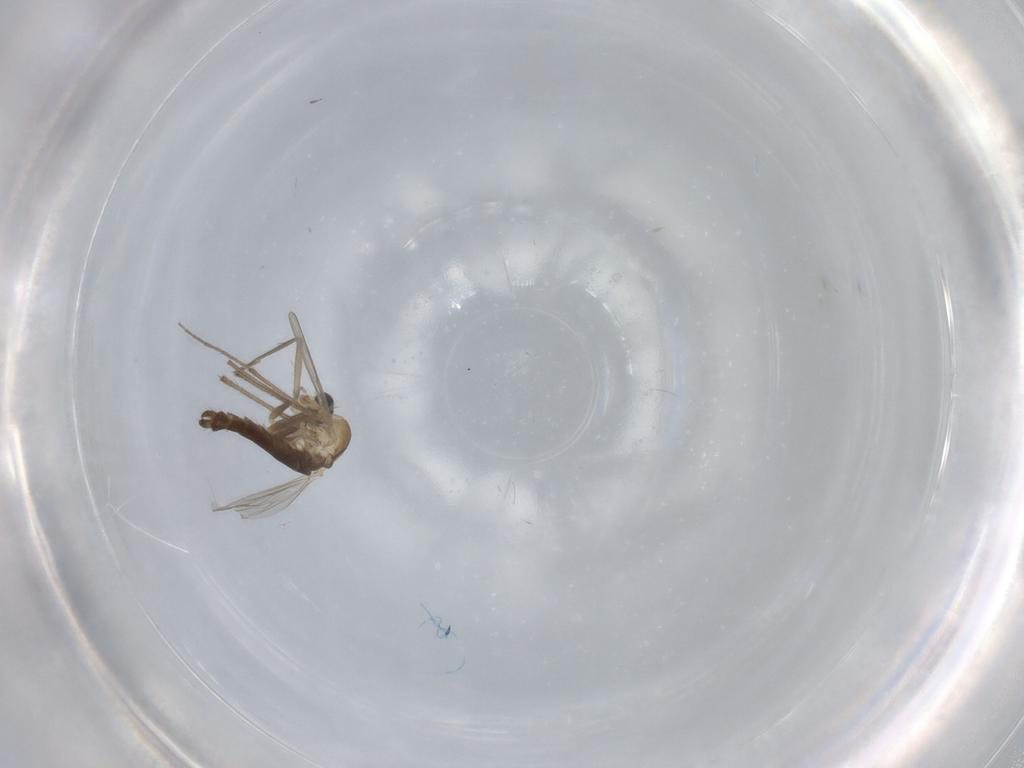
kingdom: Animalia
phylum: Arthropoda
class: Insecta
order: Diptera
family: Chironomidae
